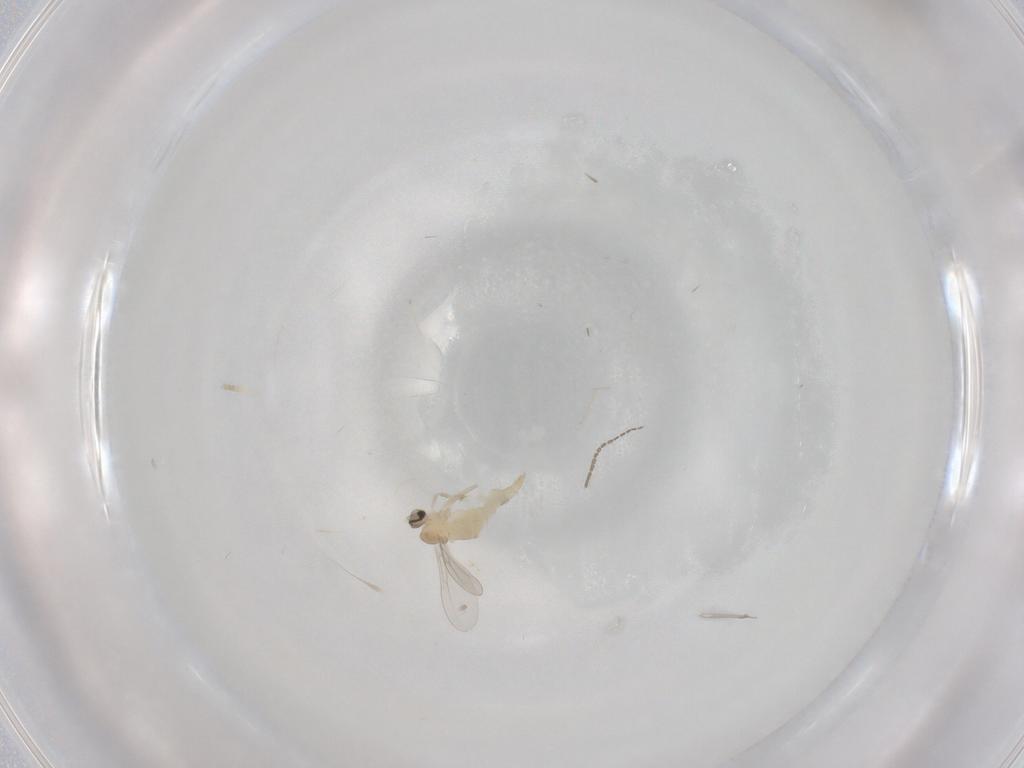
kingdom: Animalia
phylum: Arthropoda
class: Insecta
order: Diptera
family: Cecidomyiidae
